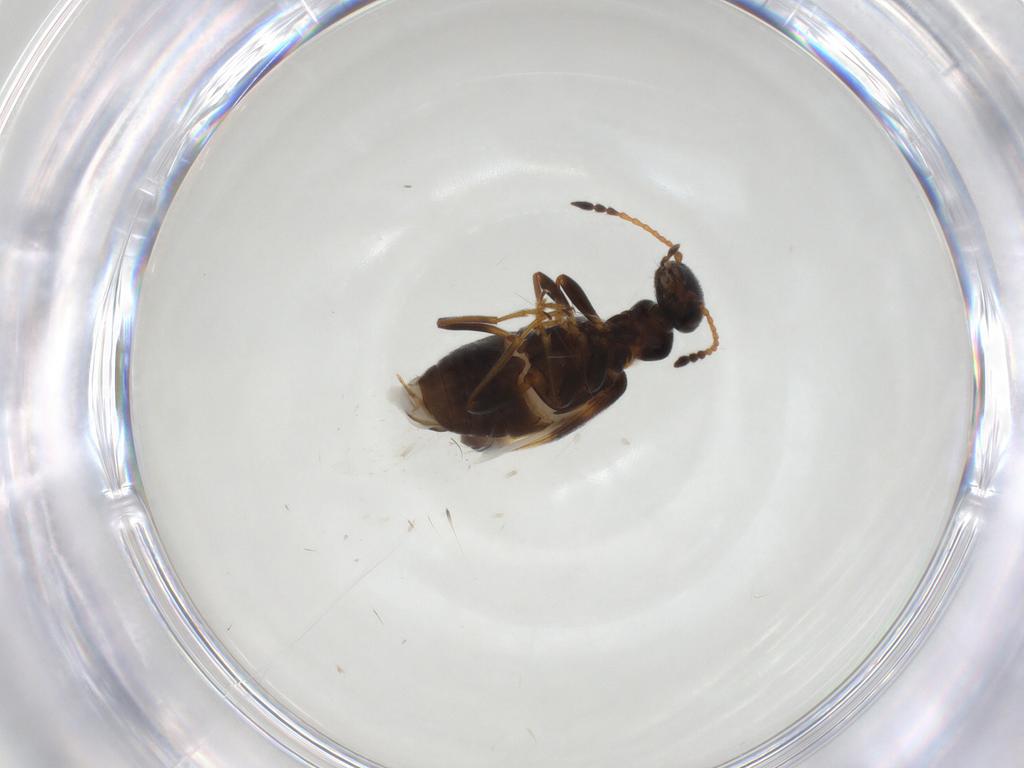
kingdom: Animalia
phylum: Arthropoda
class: Insecta
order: Coleoptera
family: Anthicidae
